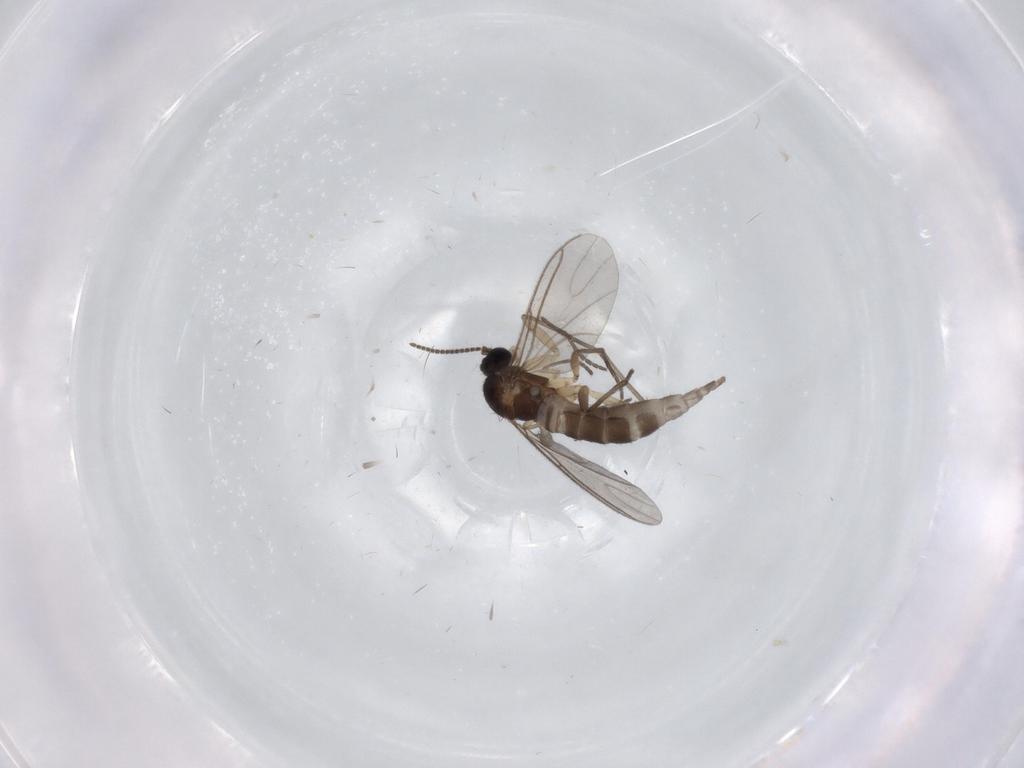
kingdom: Animalia
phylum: Arthropoda
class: Insecta
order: Diptera
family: Sciaridae
